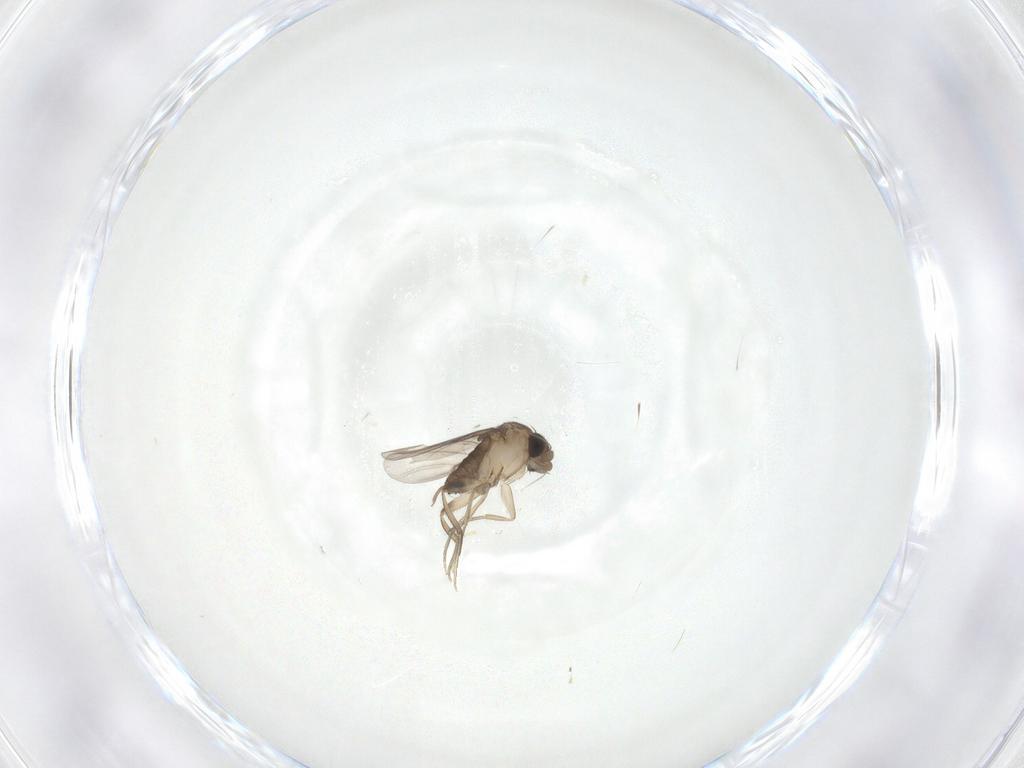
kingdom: Animalia
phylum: Arthropoda
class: Insecta
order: Diptera
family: Phoridae
